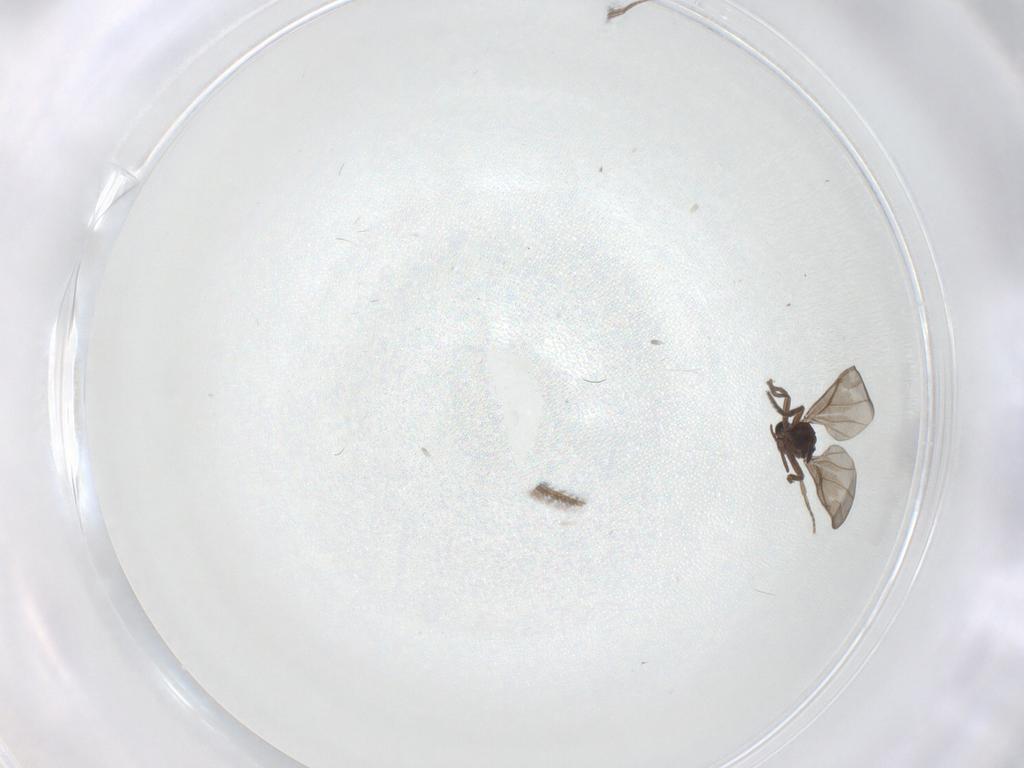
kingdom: Animalia
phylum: Arthropoda
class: Insecta
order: Diptera
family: Phoridae
